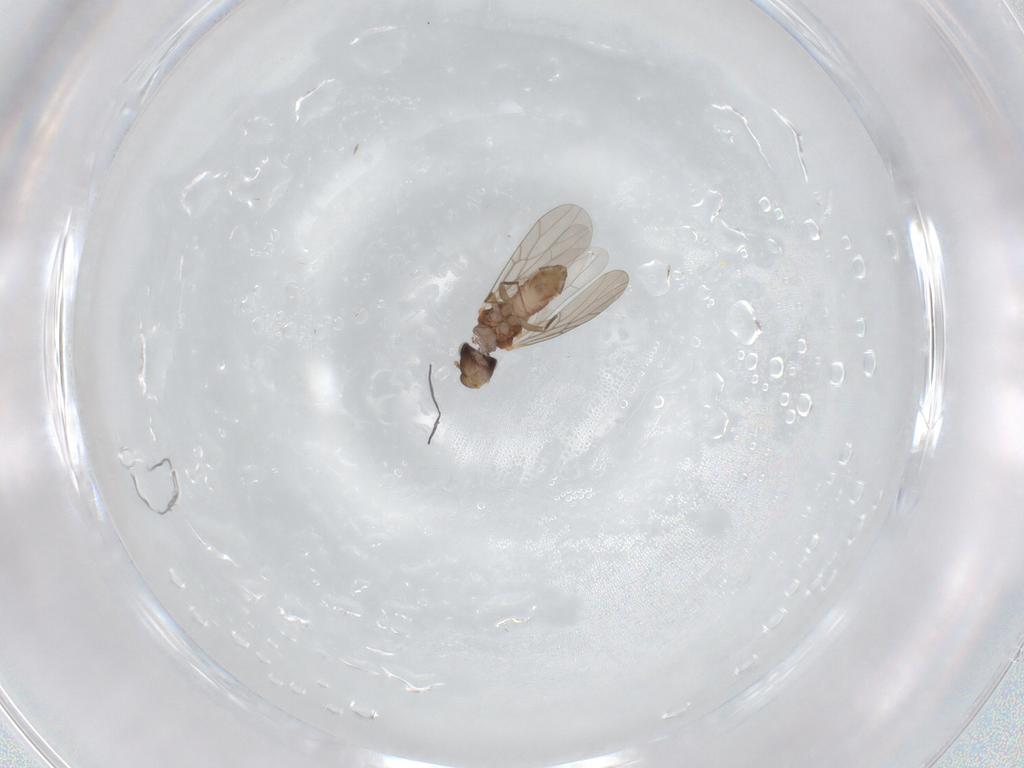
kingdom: Animalia
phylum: Arthropoda
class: Insecta
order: Psocodea
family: Lepidopsocidae
